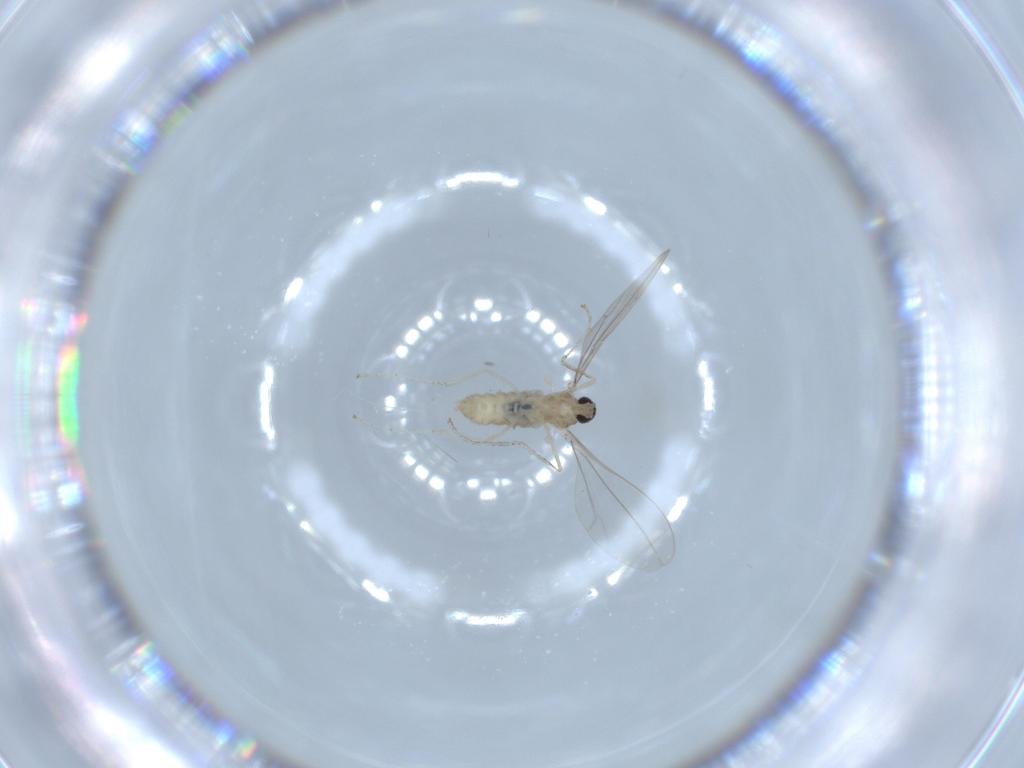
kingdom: Animalia
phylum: Arthropoda
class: Insecta
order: Diptera
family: Cecidomyiidae
